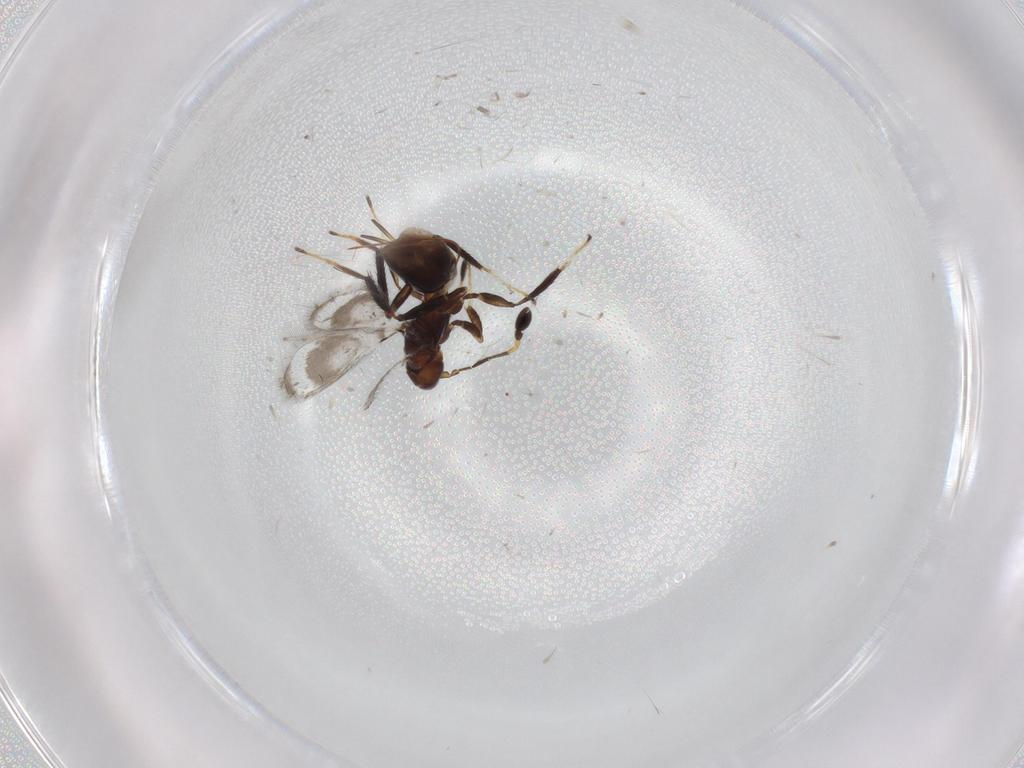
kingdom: Animalia
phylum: Arthropoda
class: Insecta
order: Hymenoptera
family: Mymaridae
